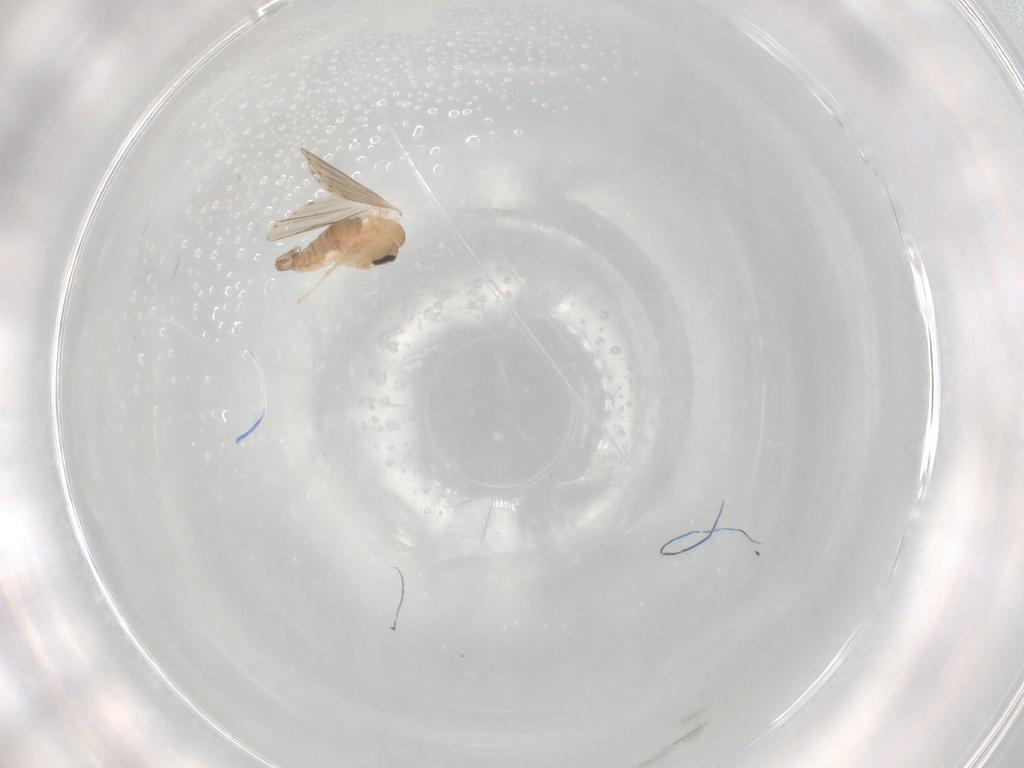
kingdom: Animalia
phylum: Arthropoda
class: Insecta
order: Diptera
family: Psychodidae
